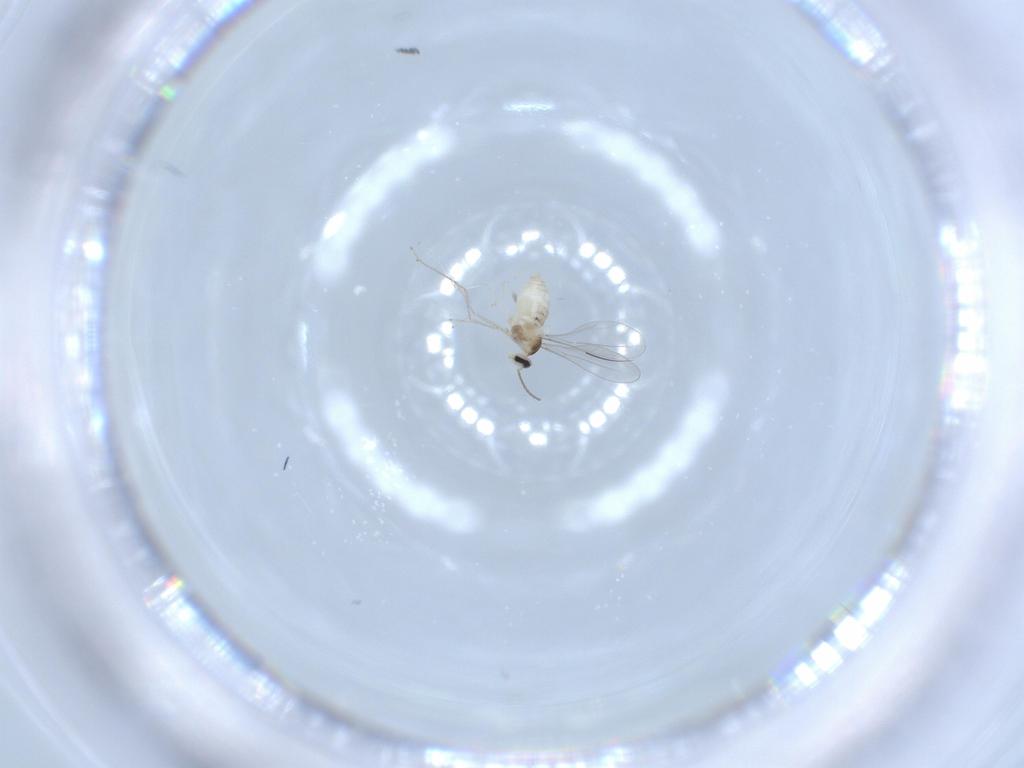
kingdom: Animalia
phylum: Arthropoda
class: Insecta
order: Diptera
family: Cecidomyiidae
